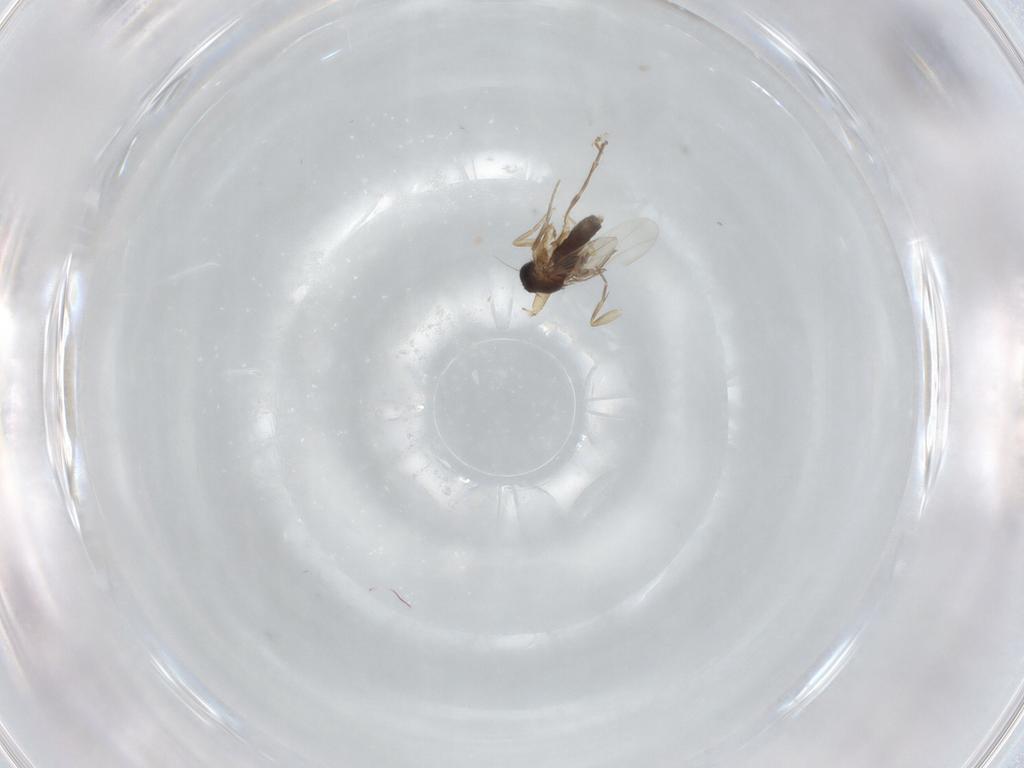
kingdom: Animalia
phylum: Arthropoda
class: Insecta
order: Diptera
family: Phoridae
